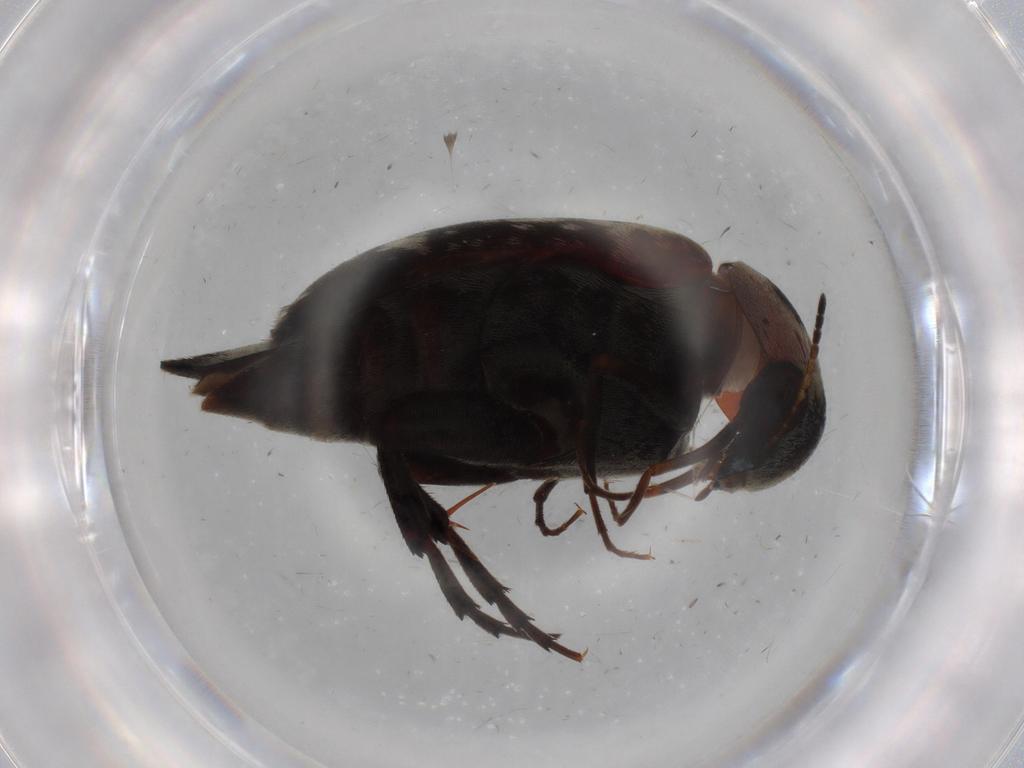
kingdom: Animalia
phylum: Arthropoda
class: Insecta
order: Coleoptera
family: Mordellidae
